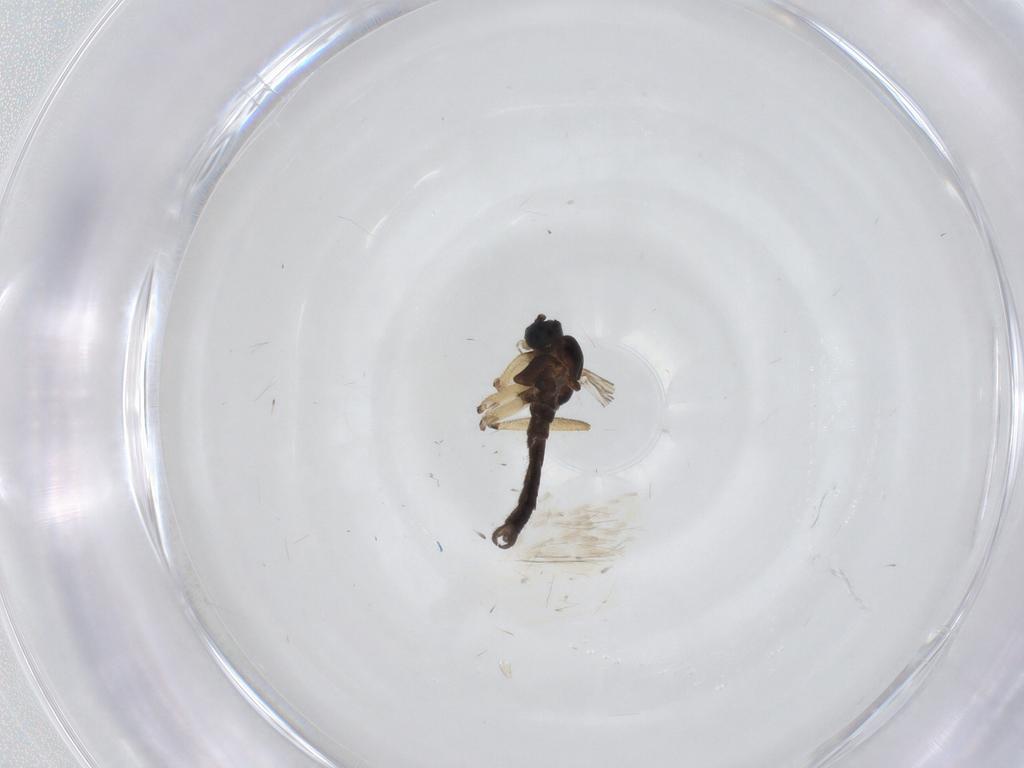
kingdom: Animalia
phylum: Arthropoda
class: Insecta
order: Diptera
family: Sciaridae
